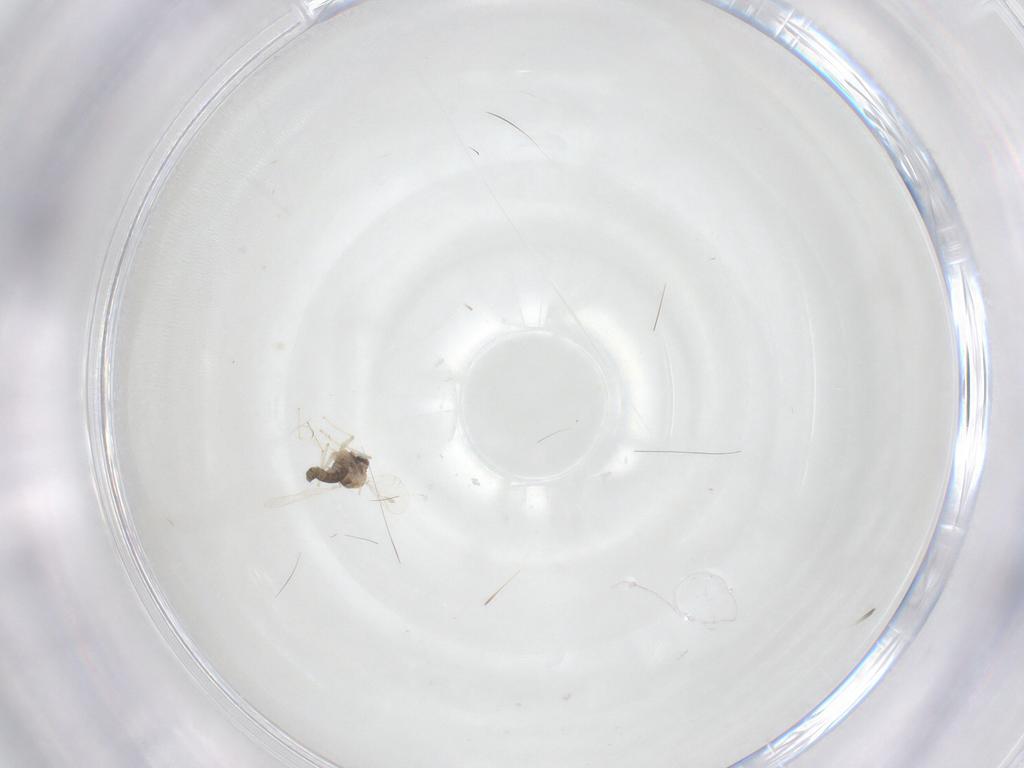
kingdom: Animalia
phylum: Arthropoda
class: Insecta
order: Diptera
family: Chironomidae
